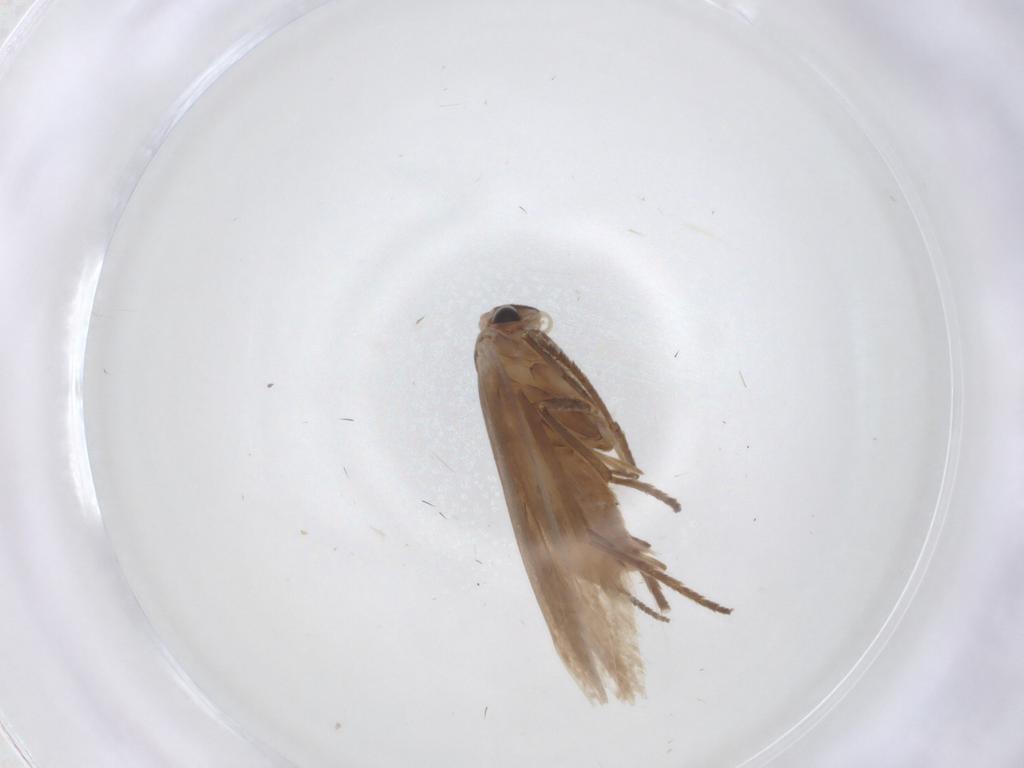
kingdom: Animalia
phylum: Arthropoda
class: Insecta
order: Lepidoptera
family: Bucculatricidae
